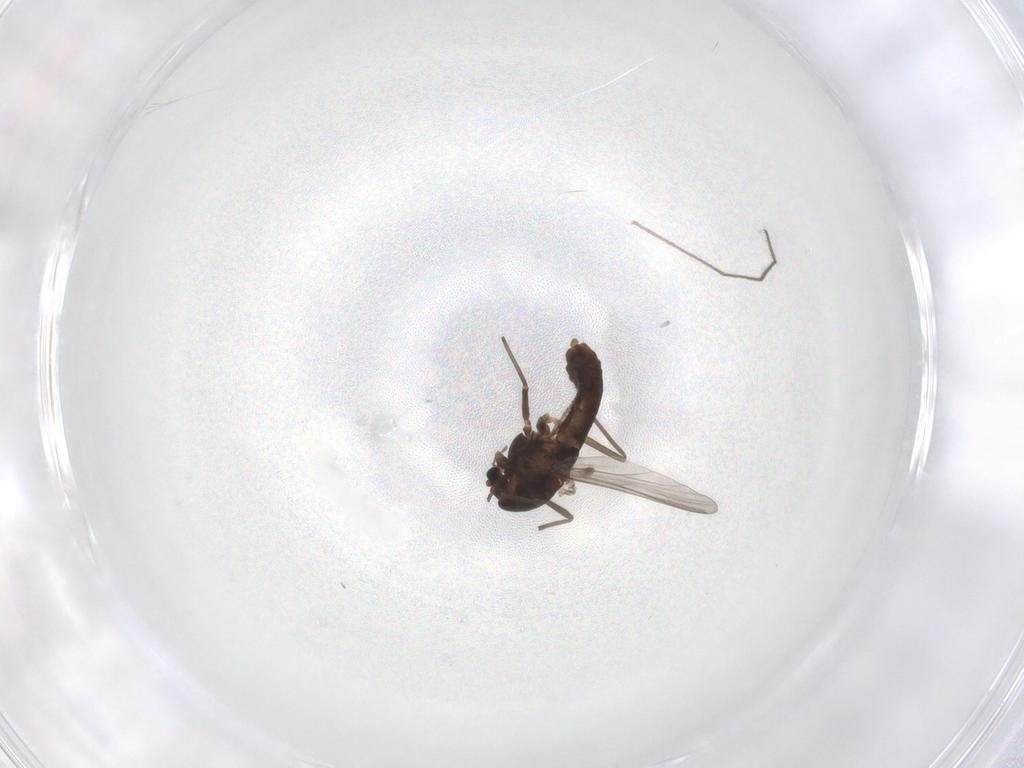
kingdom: Animalia
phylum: Arthropoda
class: Insecta
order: Diptera
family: Chironomidae
